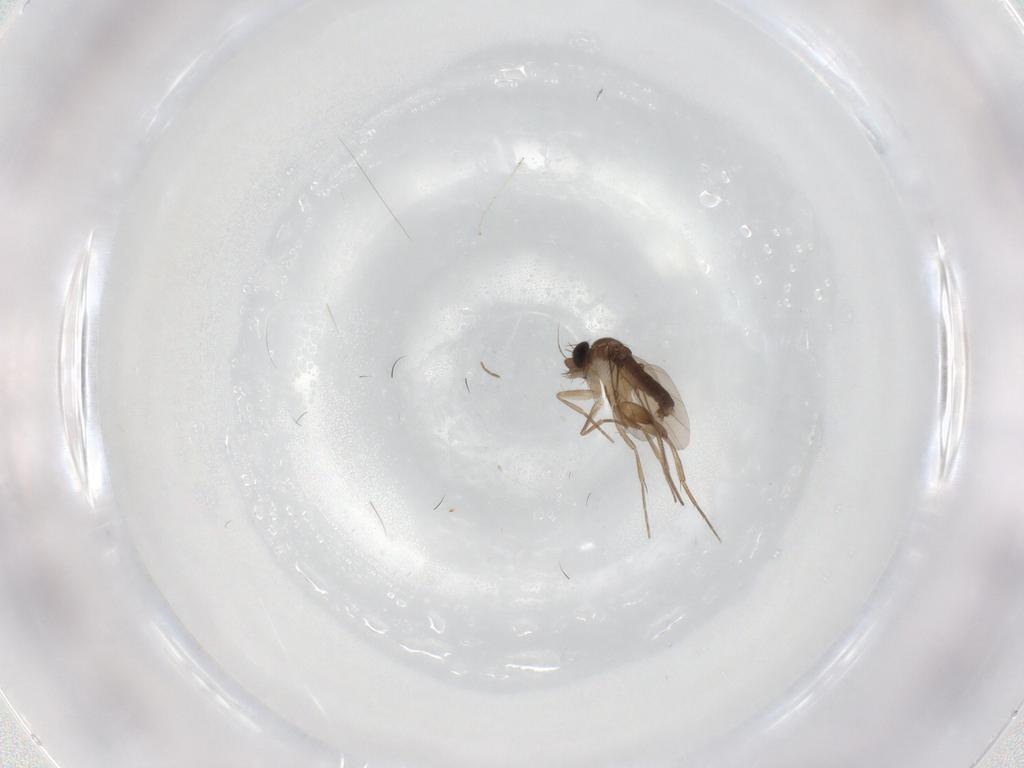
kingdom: Animalia
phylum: Arthropoda
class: Insecta
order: Diptera
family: Phoridae
